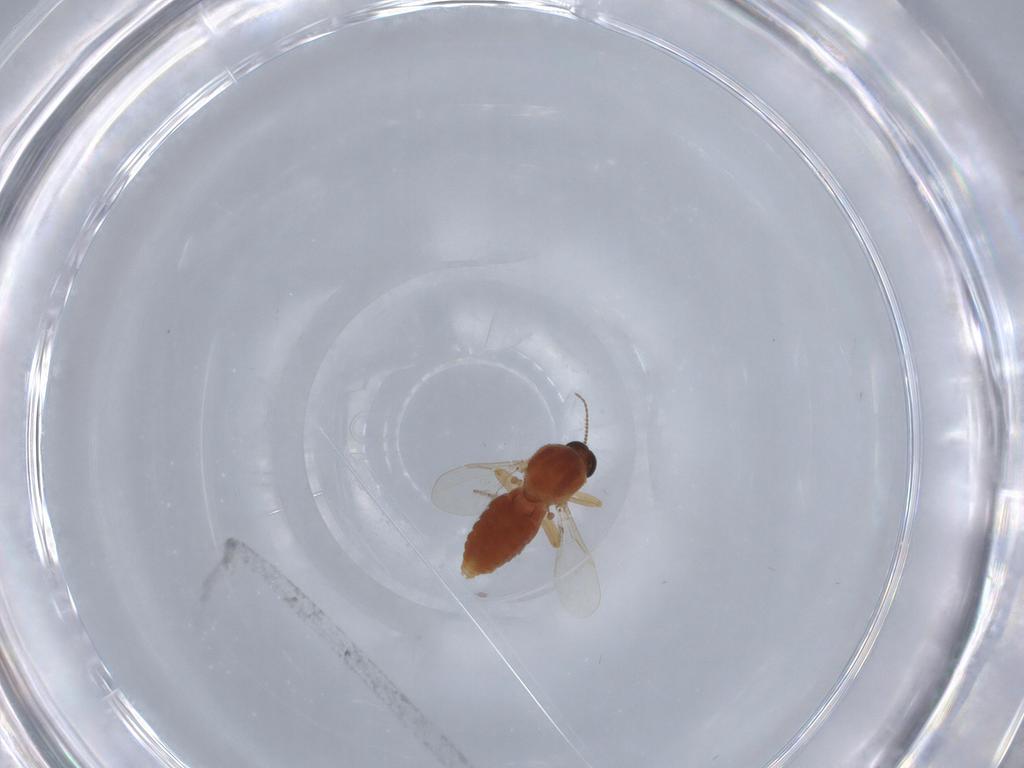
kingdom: Animalia
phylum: Arthropoda
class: Insecta
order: Diptera
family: Ceratopogonidae
